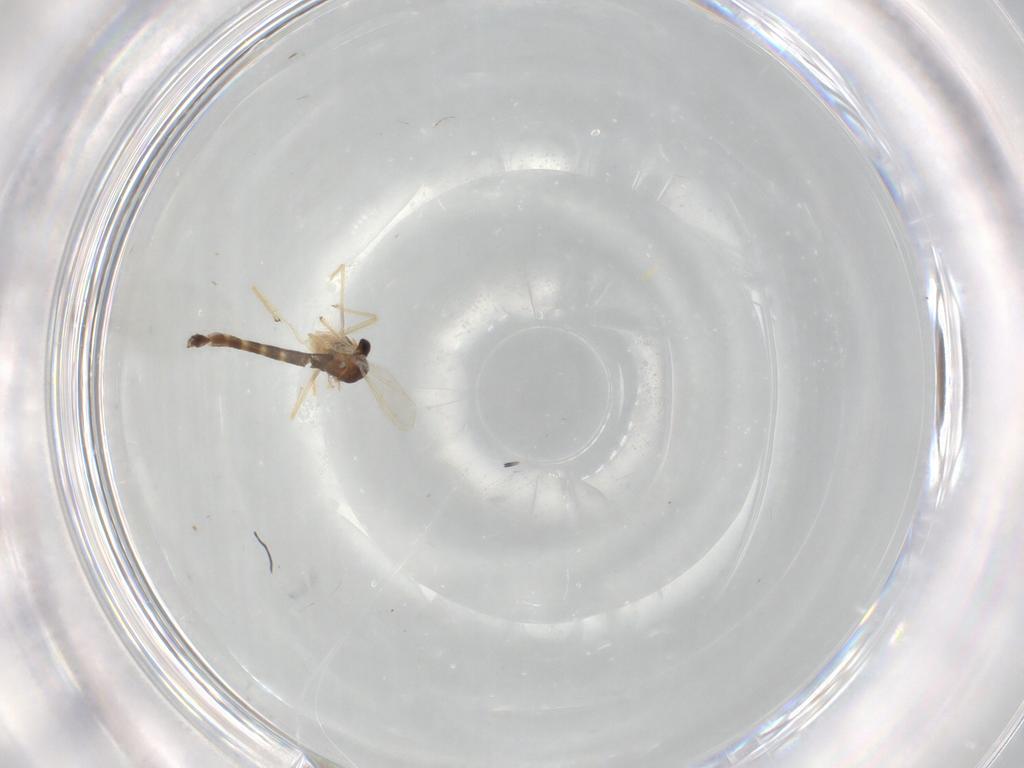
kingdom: Animalia
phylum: Arthropoda
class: Insecta
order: Diptera
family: Chironomidae
